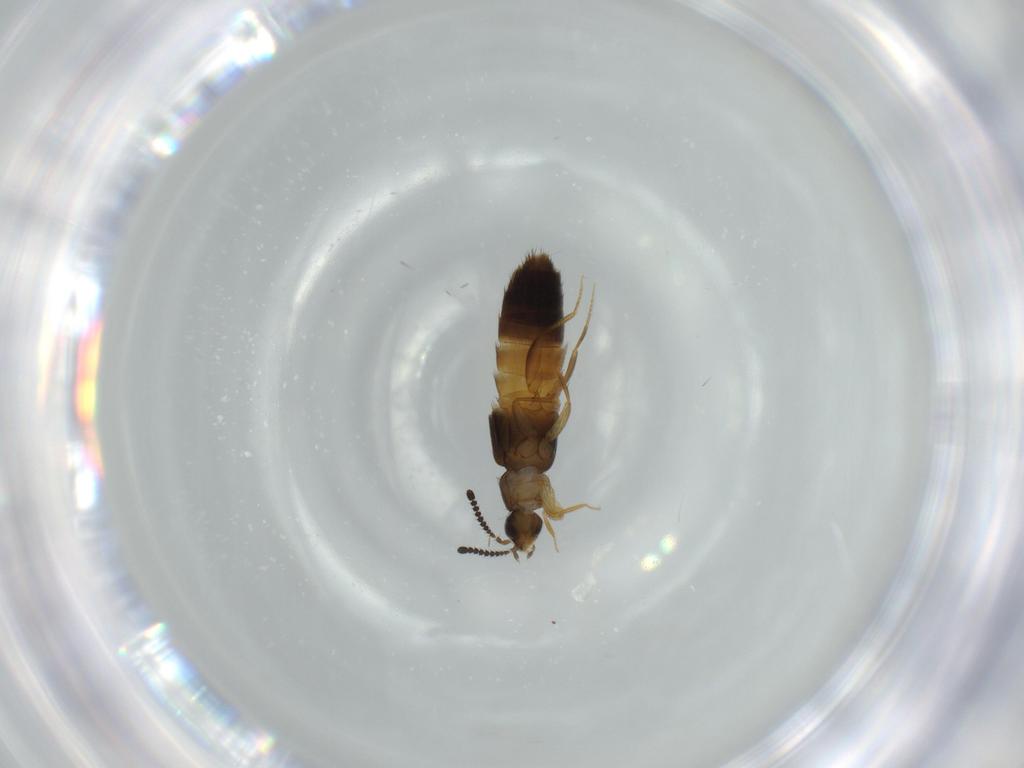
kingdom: Animalia
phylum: Arthropoda
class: Insecta
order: Coleoptera
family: Staphylinidae
